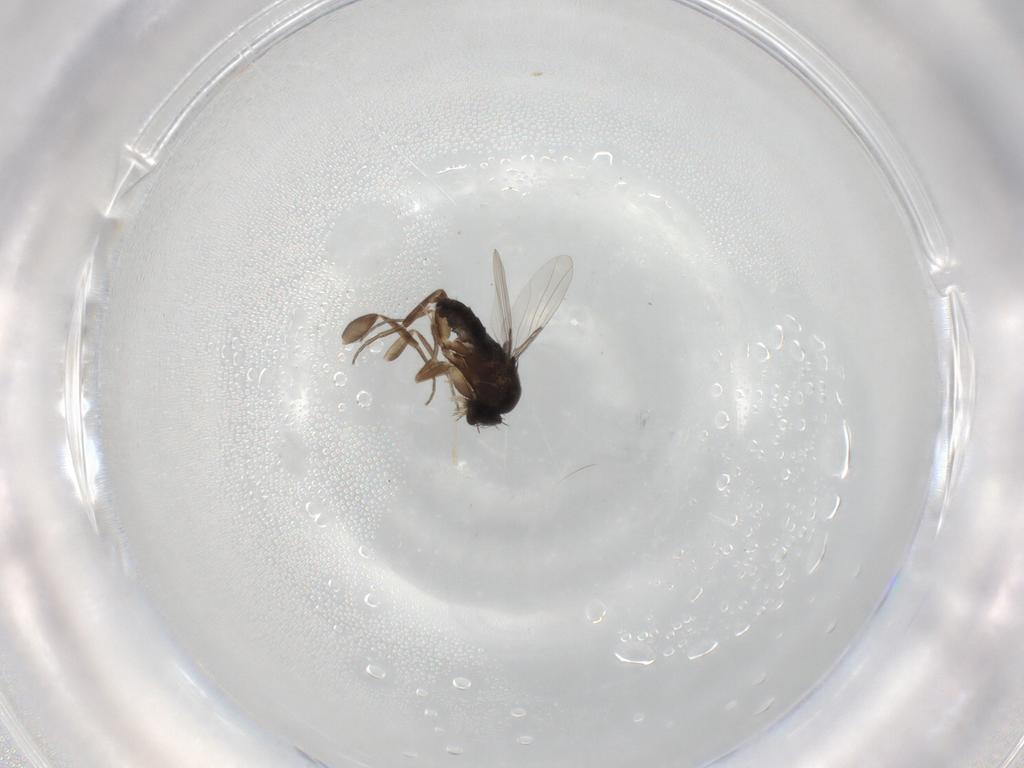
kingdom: Animalia
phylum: Arthropoda
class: Insecta
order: Diptera
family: Phoridae
